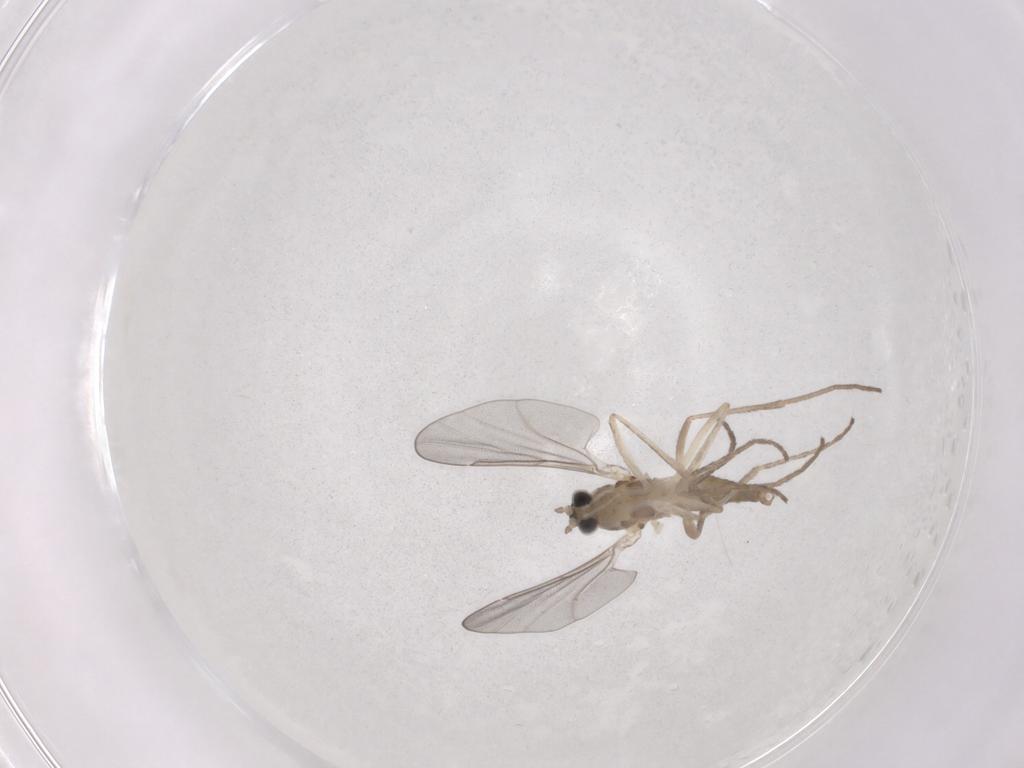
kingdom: Animalia
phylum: Arthropoda
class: Insecta
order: Diptera
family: Cecidomyiidae
